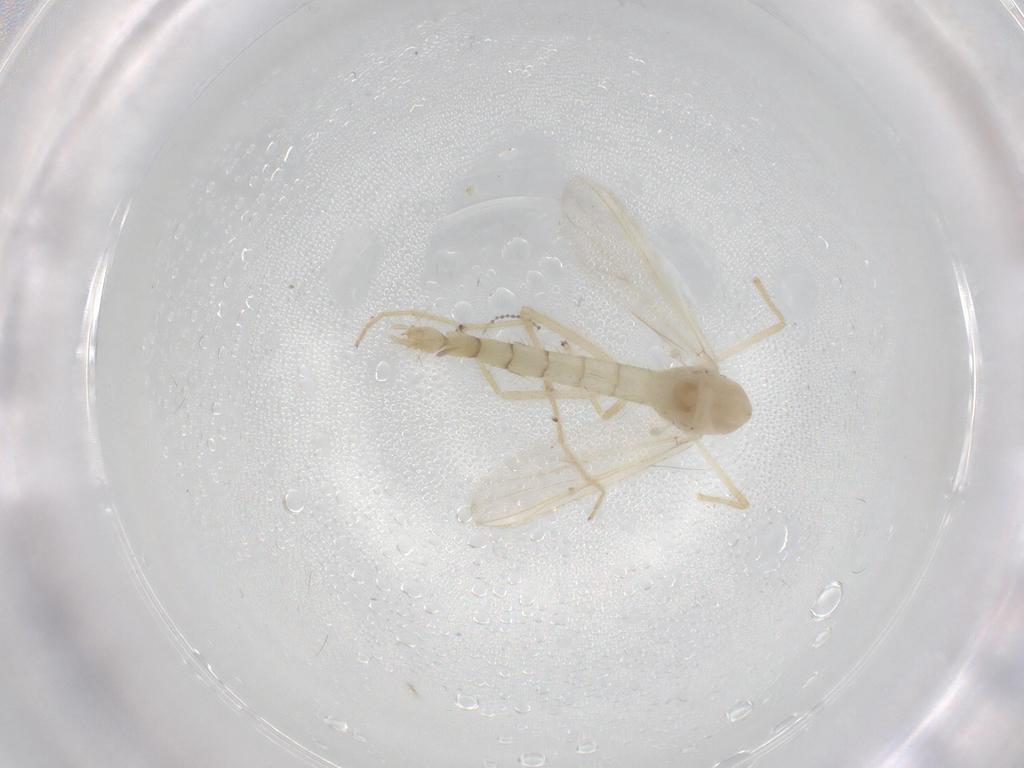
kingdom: Animalia
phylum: Arthropoda
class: Insecta
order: Diptera
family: Chironomidae
